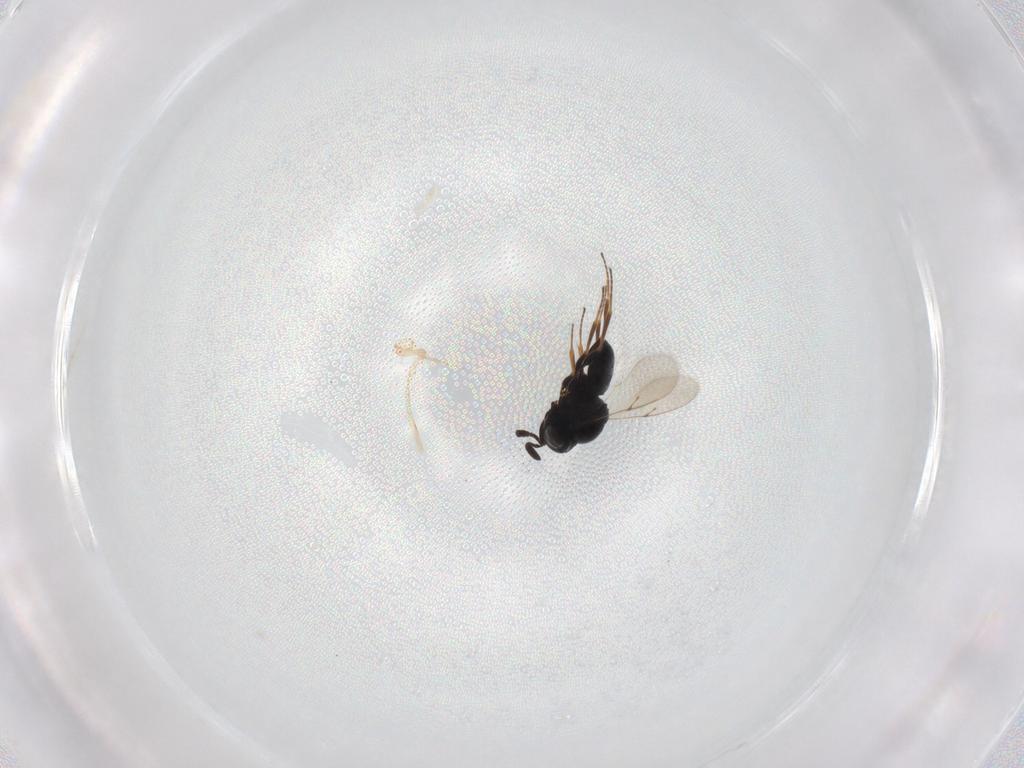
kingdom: Animalia
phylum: Arthropoda
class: Insecta
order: Hymenoptera
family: Scelionidae
